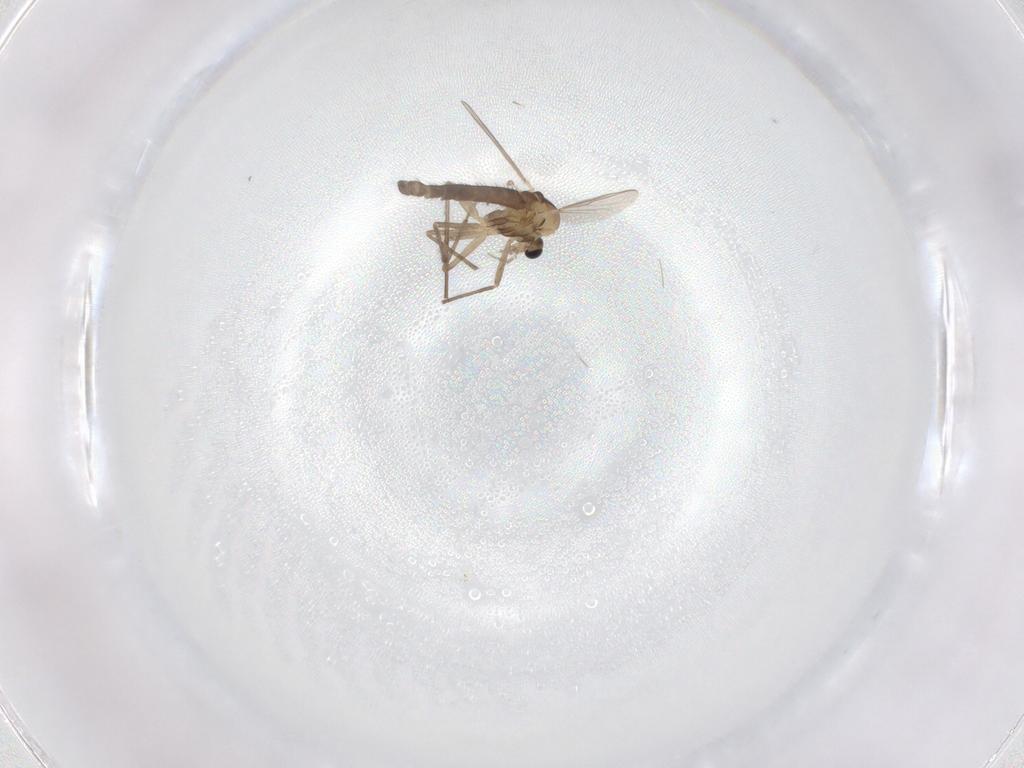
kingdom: Animalia
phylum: Arthropoda
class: Insecta
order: Diptera
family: Chironomidae
